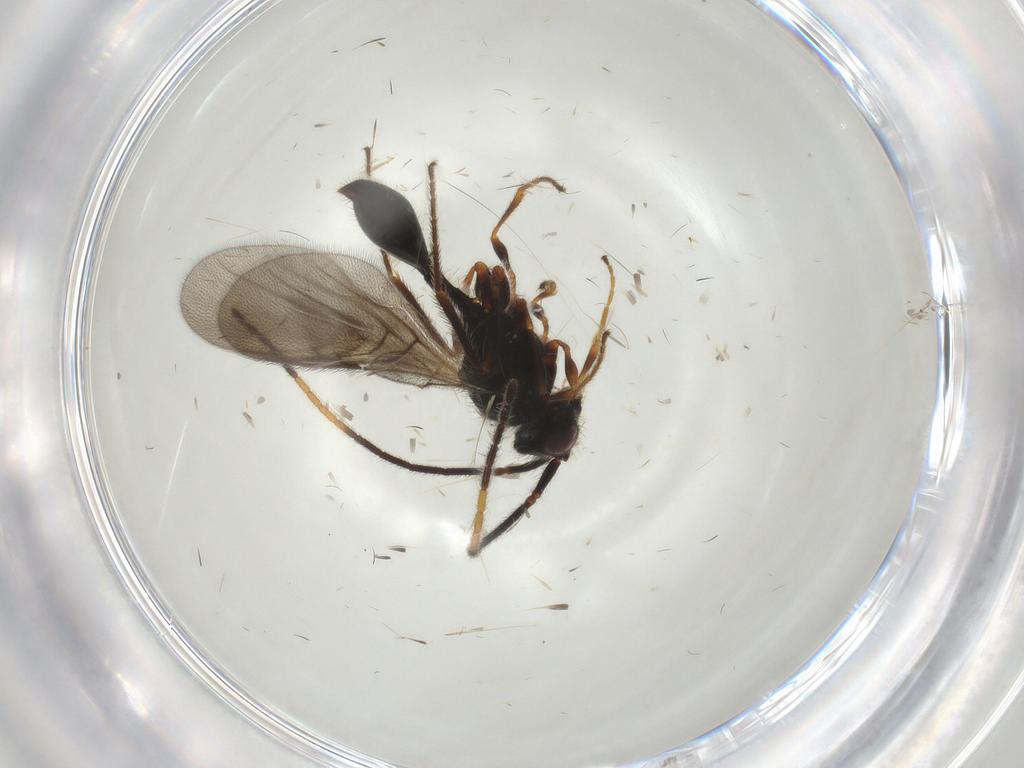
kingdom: Animalia
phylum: Arthropoda
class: Insecta
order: Hymenoptera
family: Diapriidae
